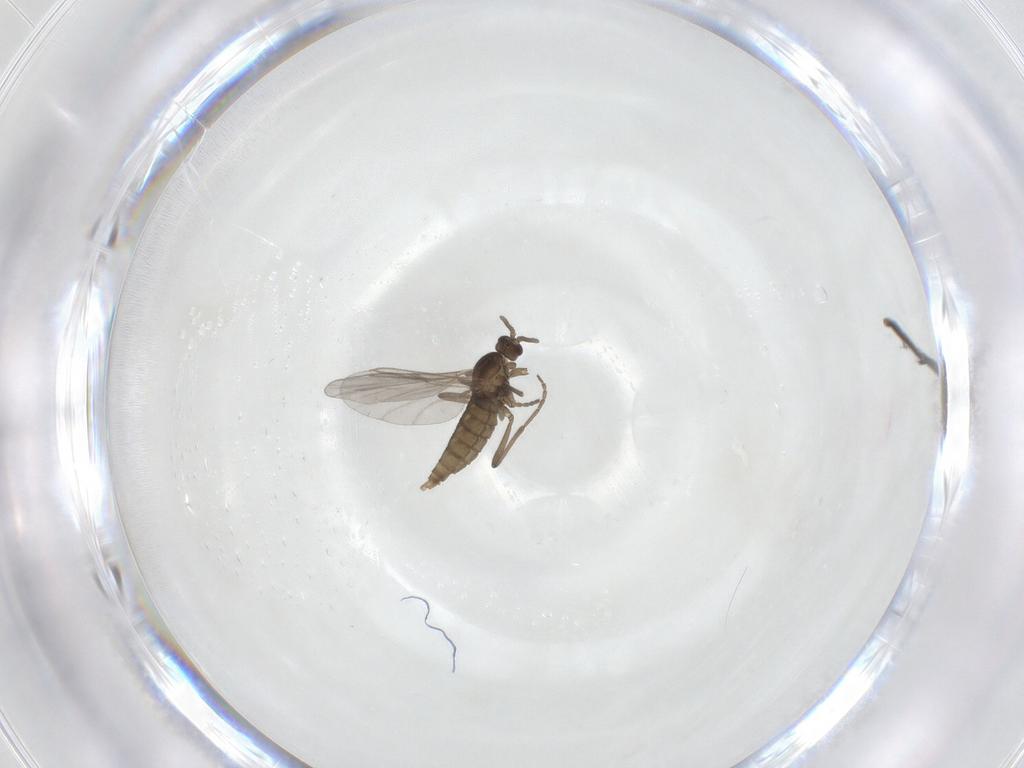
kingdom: Animalia
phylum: Arthropoda
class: Insecta
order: Diptera
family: Cecidomyiidae
